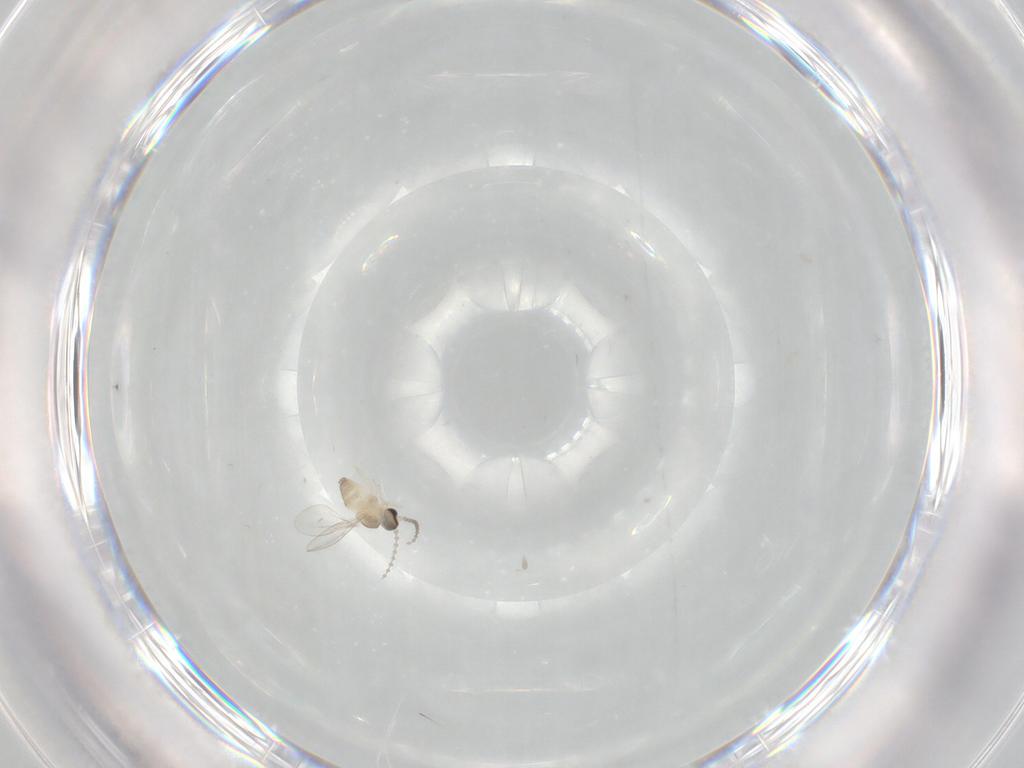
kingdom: Animalia
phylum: Arthropoda
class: Insecta
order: Diptera
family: Cecidomyiidae
